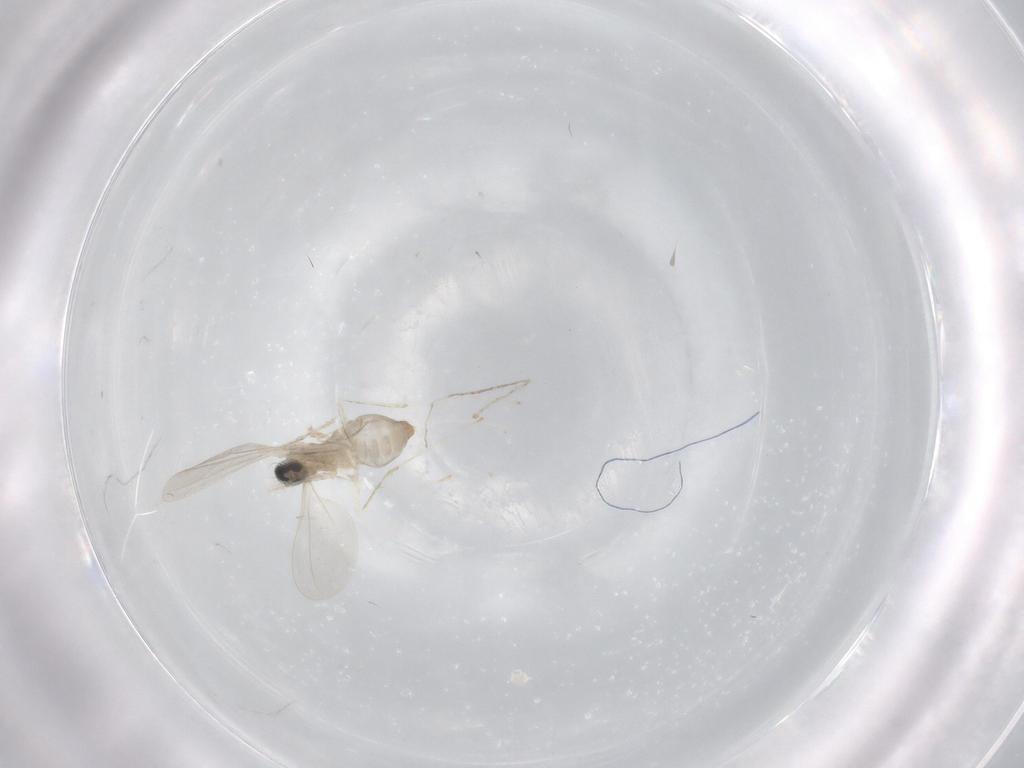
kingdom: Animalia
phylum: Arthropoda
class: Insecta
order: Diptera
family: Cecidomyiidae
